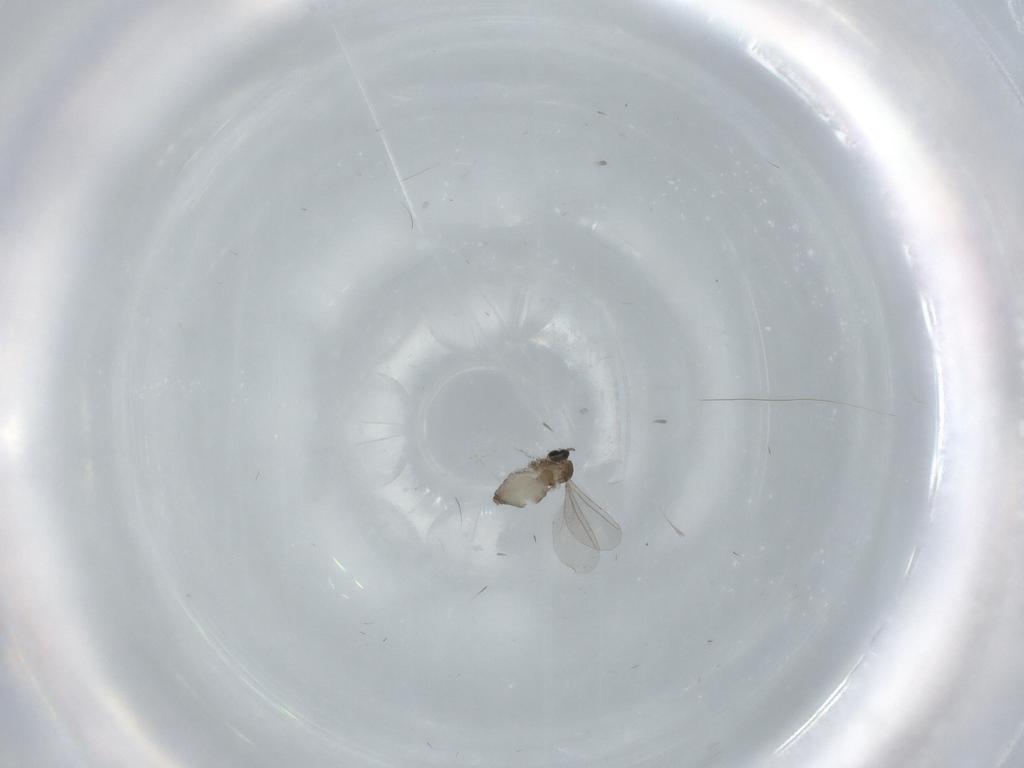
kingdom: Animalia
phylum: Arthropoda
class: Insecta
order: Diptera
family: Cecidomyiidae
